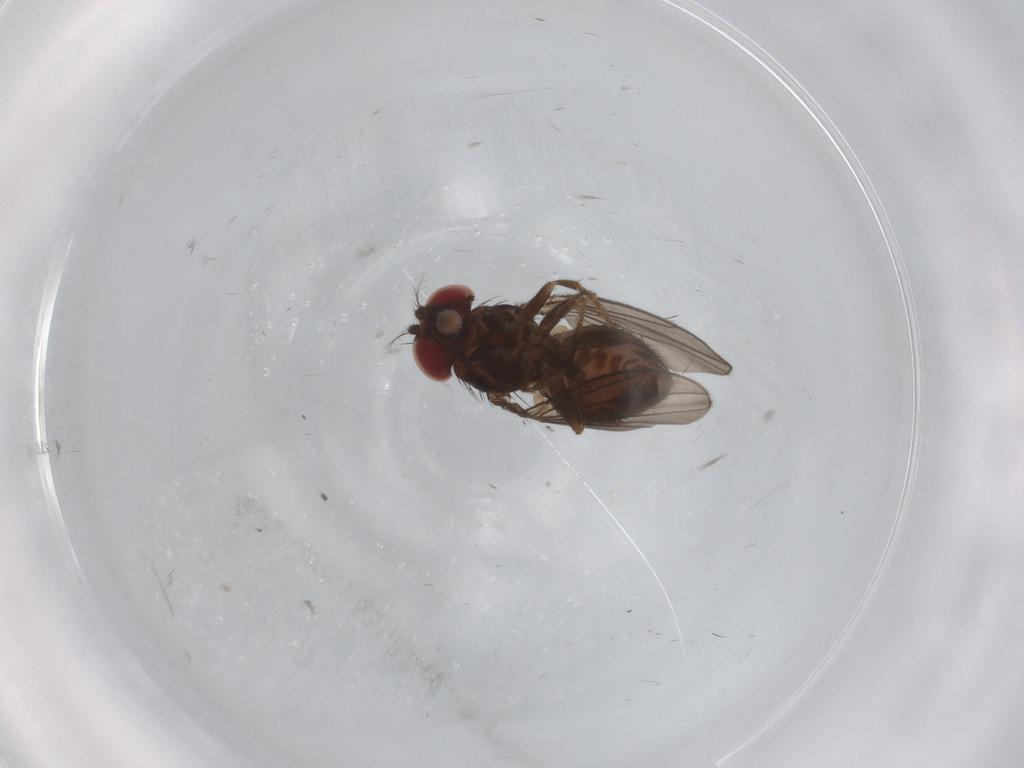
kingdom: Animalia
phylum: Arthropoda
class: Insecta
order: Diptera
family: Drosophilidae
